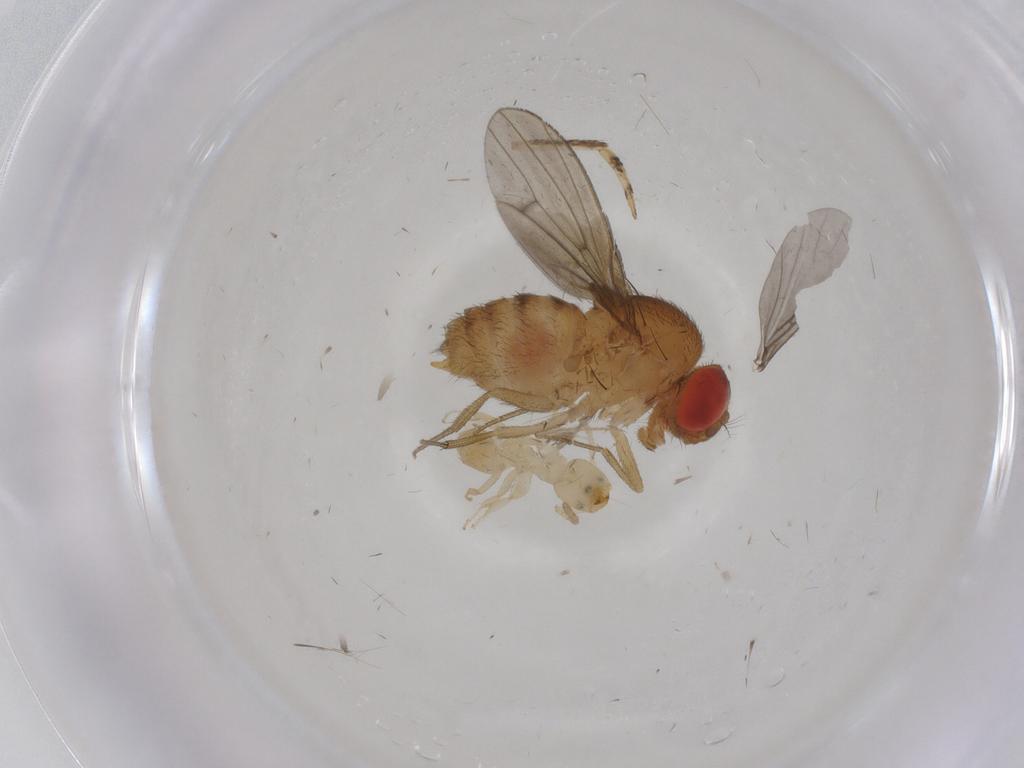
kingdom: Animalia
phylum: Arthropoda
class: Insecta
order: Diptera
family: Drosophilidae
